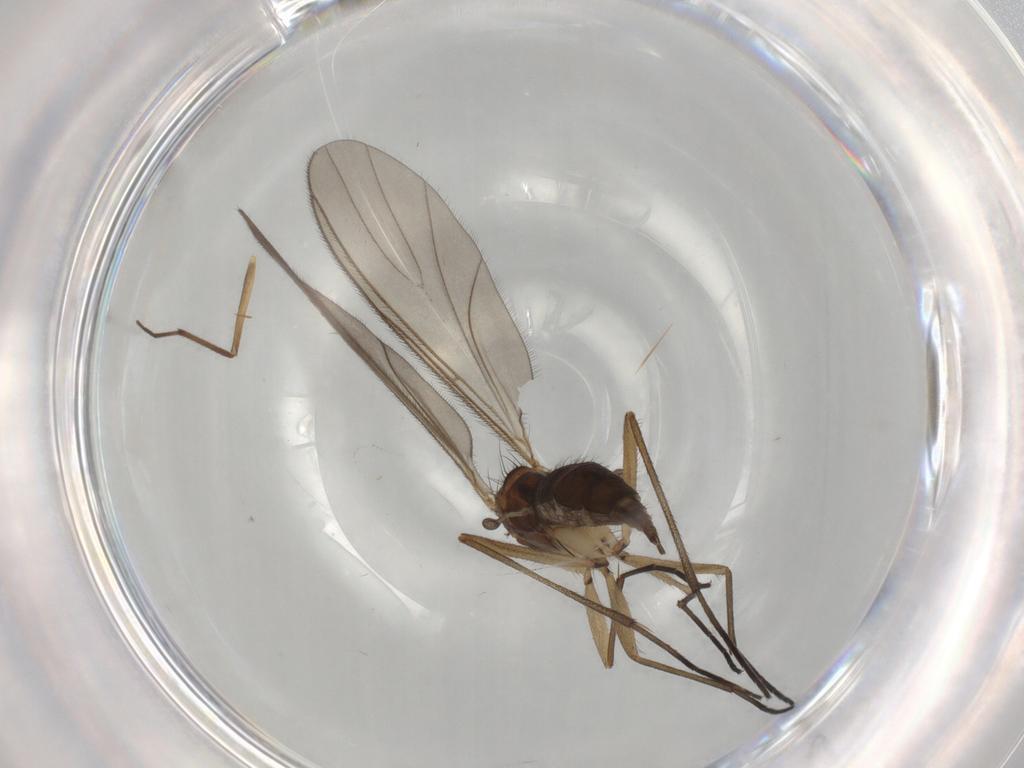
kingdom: Animalia
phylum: Arthropoda
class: Insecta
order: Diptera
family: Sciaridae
